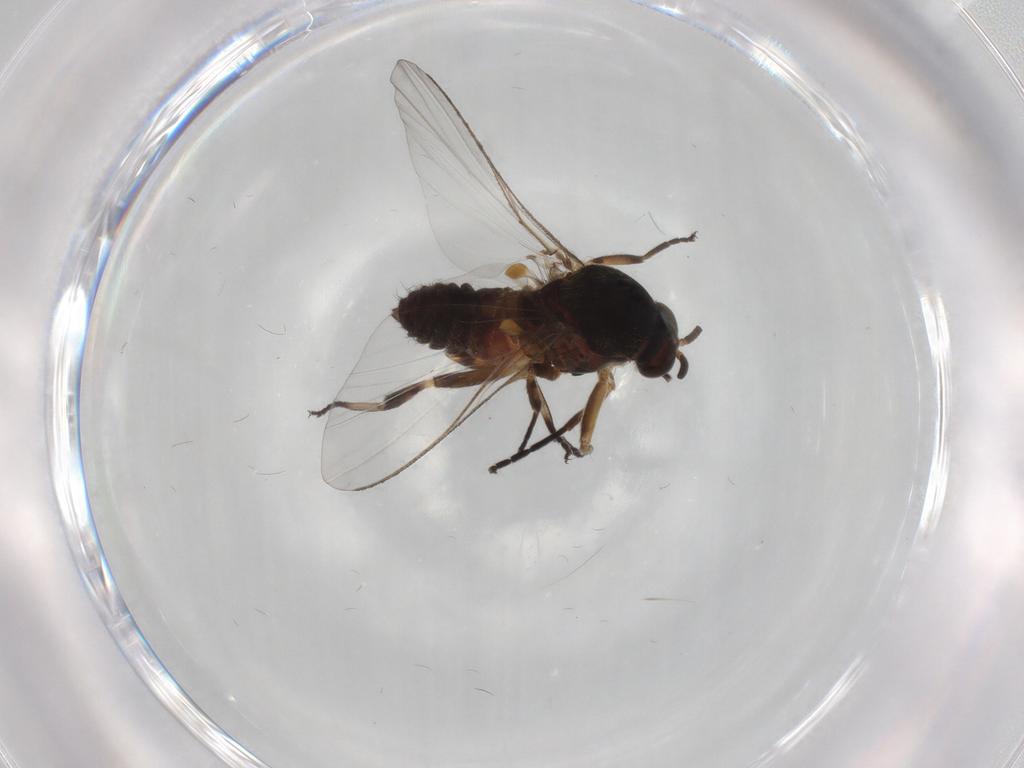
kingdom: Animalia
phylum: Arthropoda
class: Insecta
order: Diptera
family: Chironomidae
